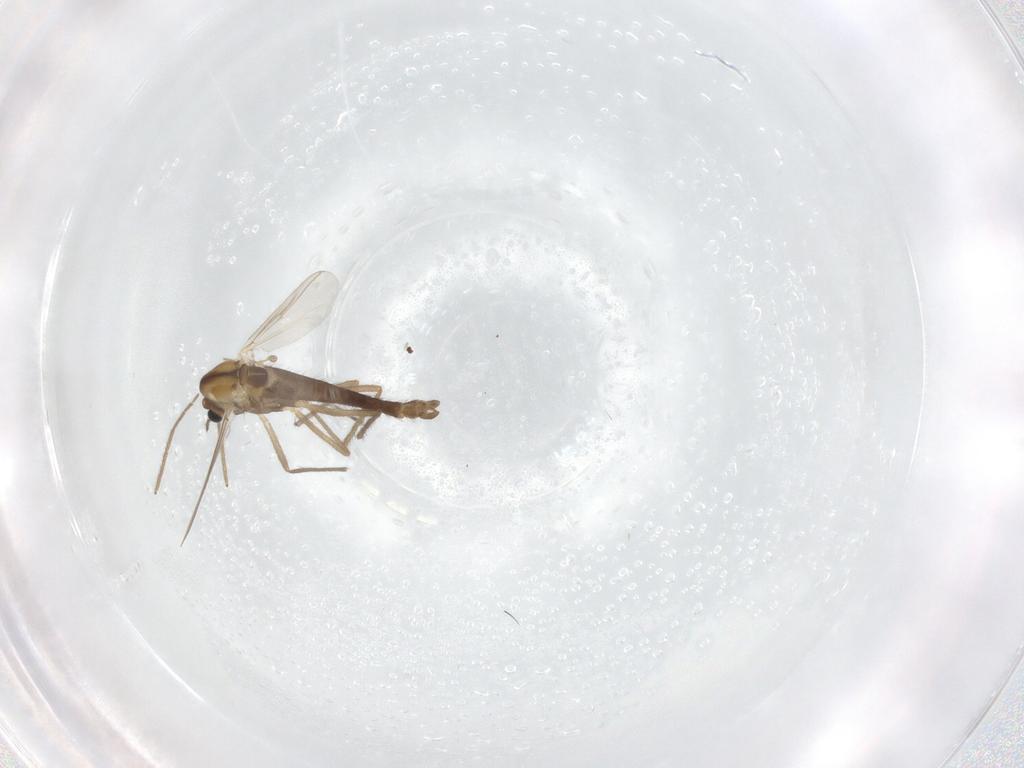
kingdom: Animalia
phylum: Arthropoda
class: Insecta
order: Diptera
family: Chironomidae
